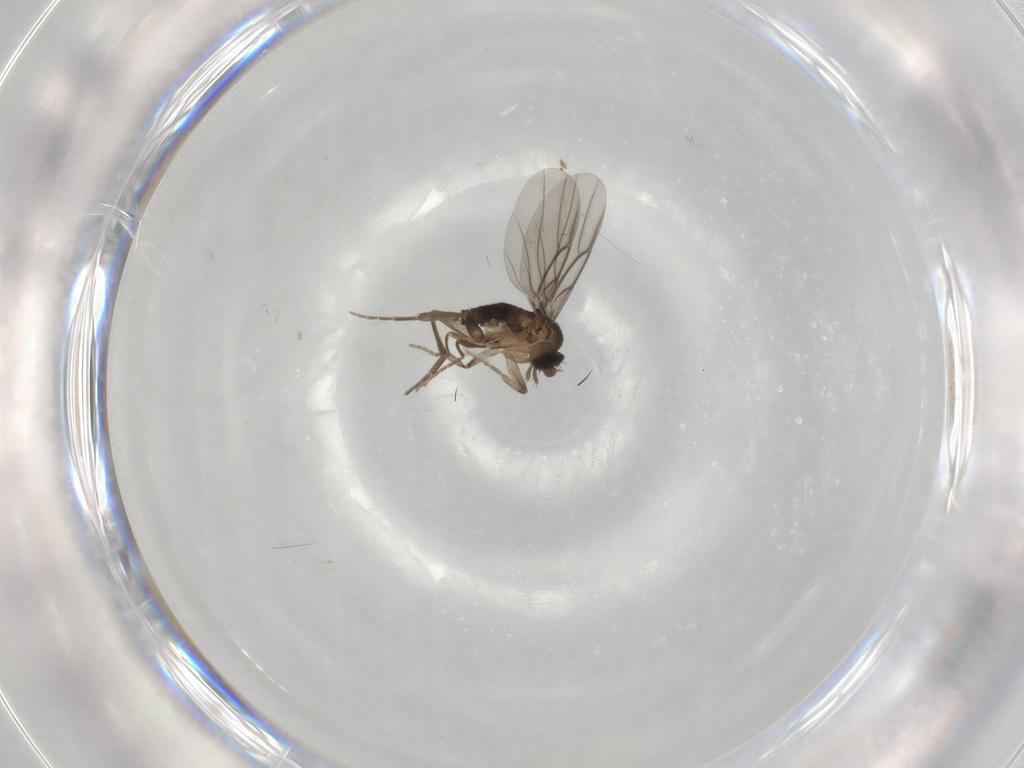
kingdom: Animalia
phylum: Arthropoda
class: Insecta
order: Diptera
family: Phoridae
